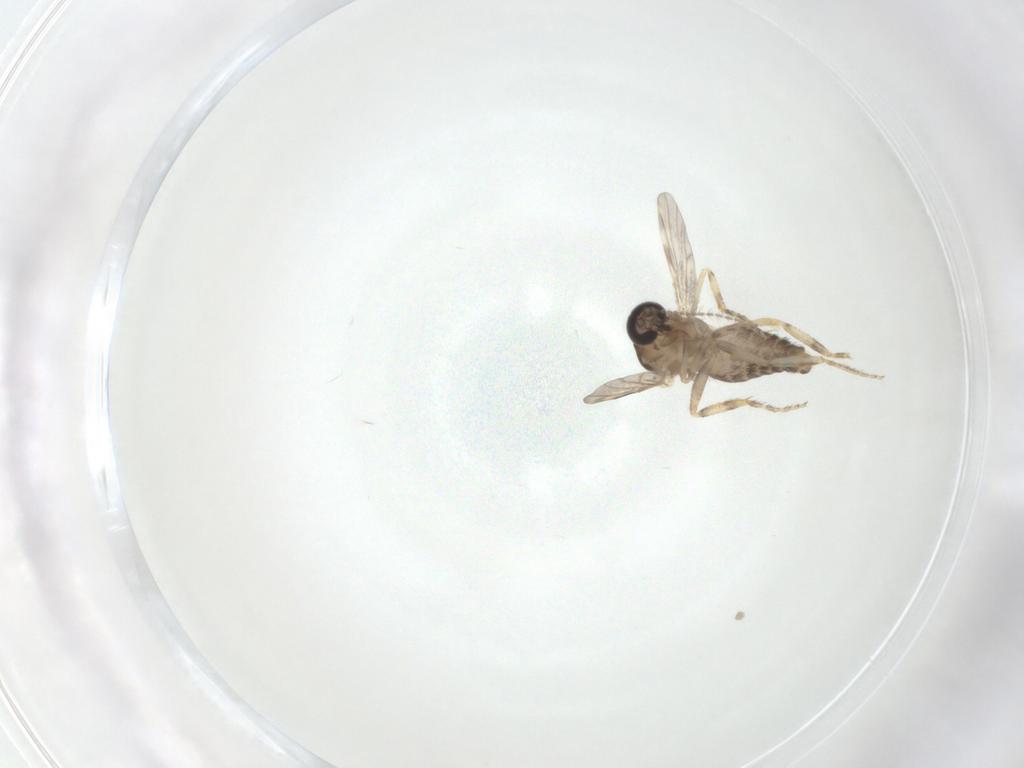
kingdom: Animalia
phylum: Arthropoda
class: Insecta
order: Diptera
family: Ceratopogonidae
